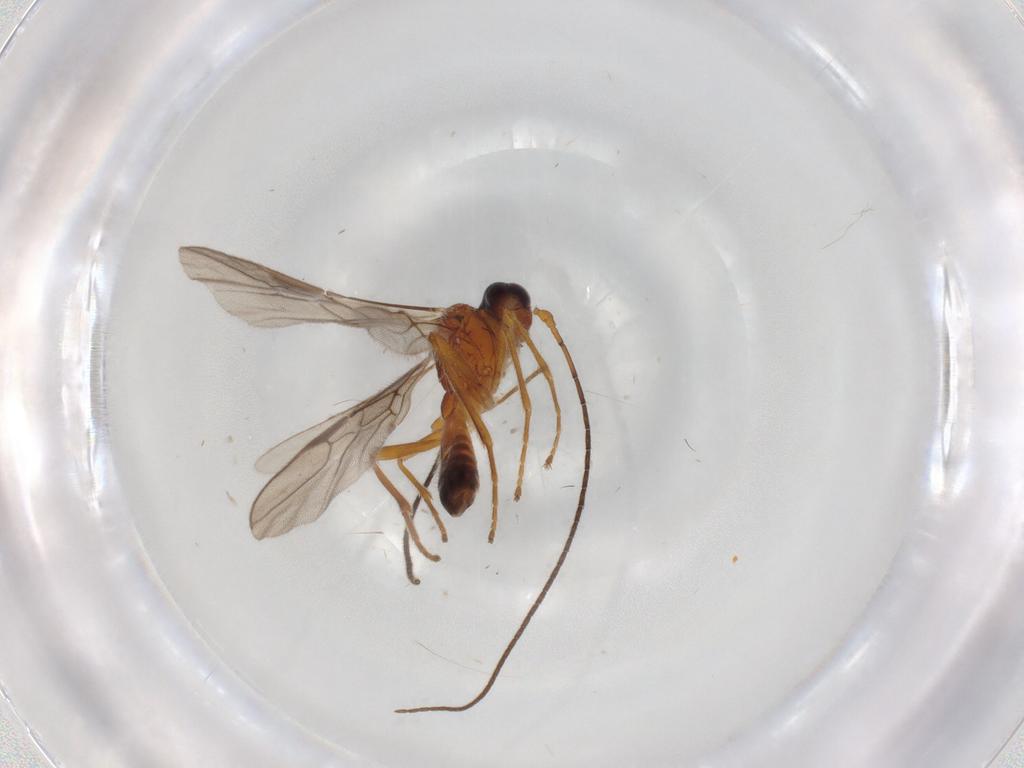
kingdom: Animalia
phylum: Arthropoda
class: Insecta
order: Hymenoptera
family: Braconidae
